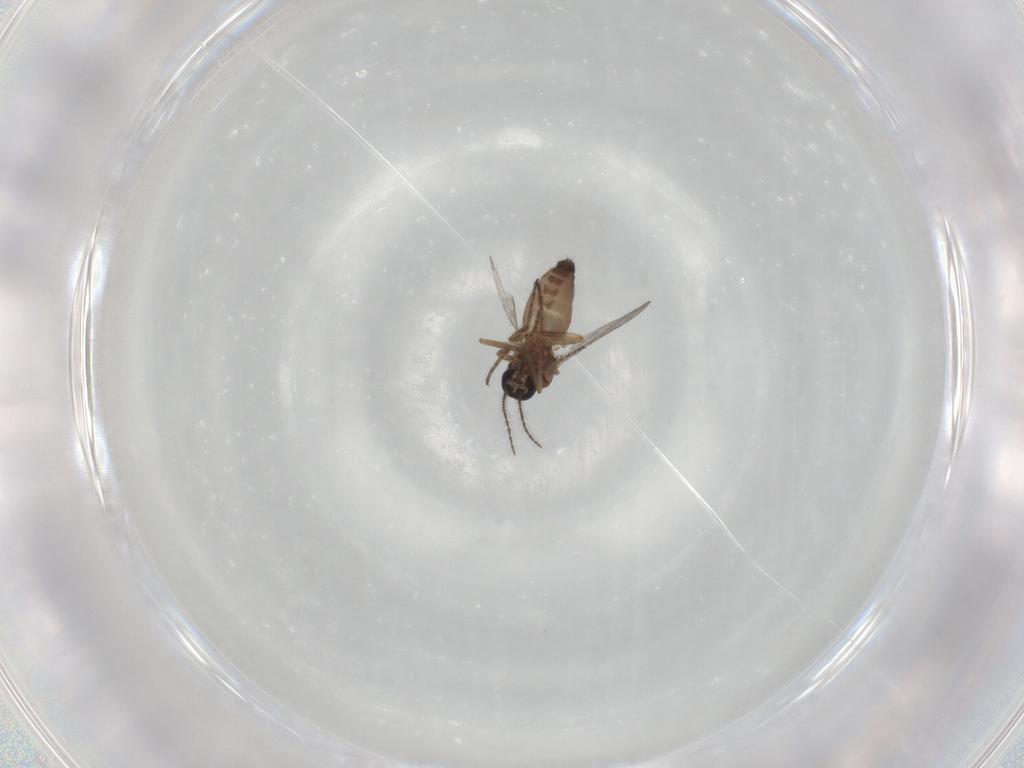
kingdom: Animalia
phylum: Arthropoda
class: Insecta
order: Diptera
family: Ceratopogonidae
